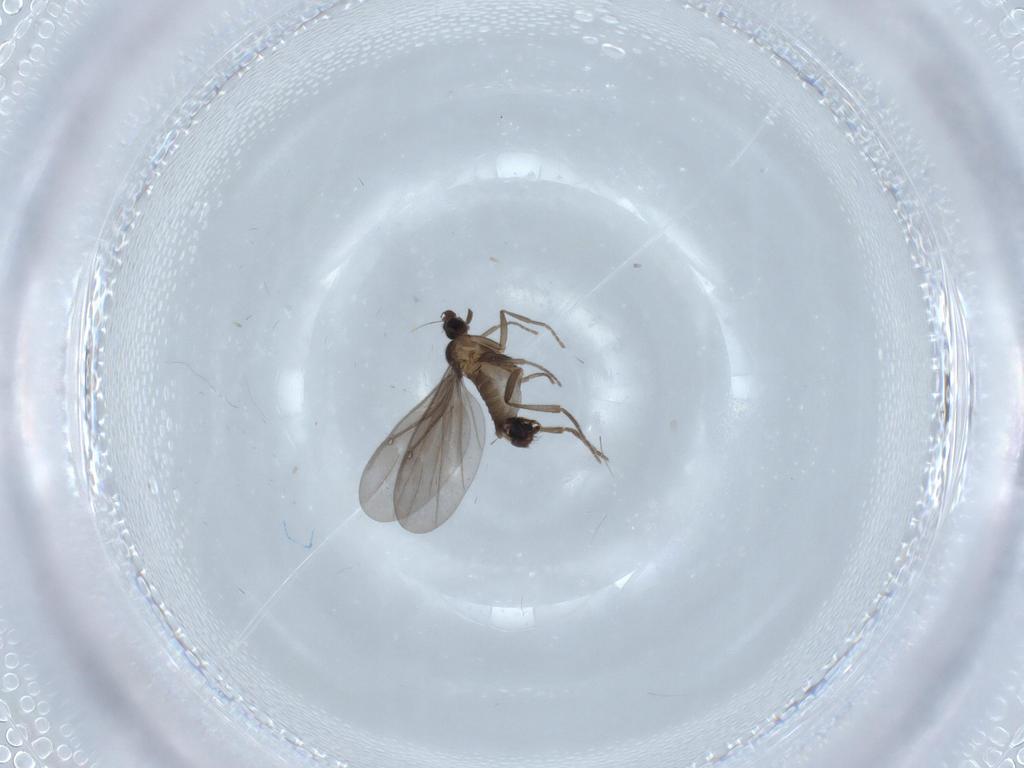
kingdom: Animalia
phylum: Arthropoda
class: Insecta
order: Diptera
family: Phoridae
